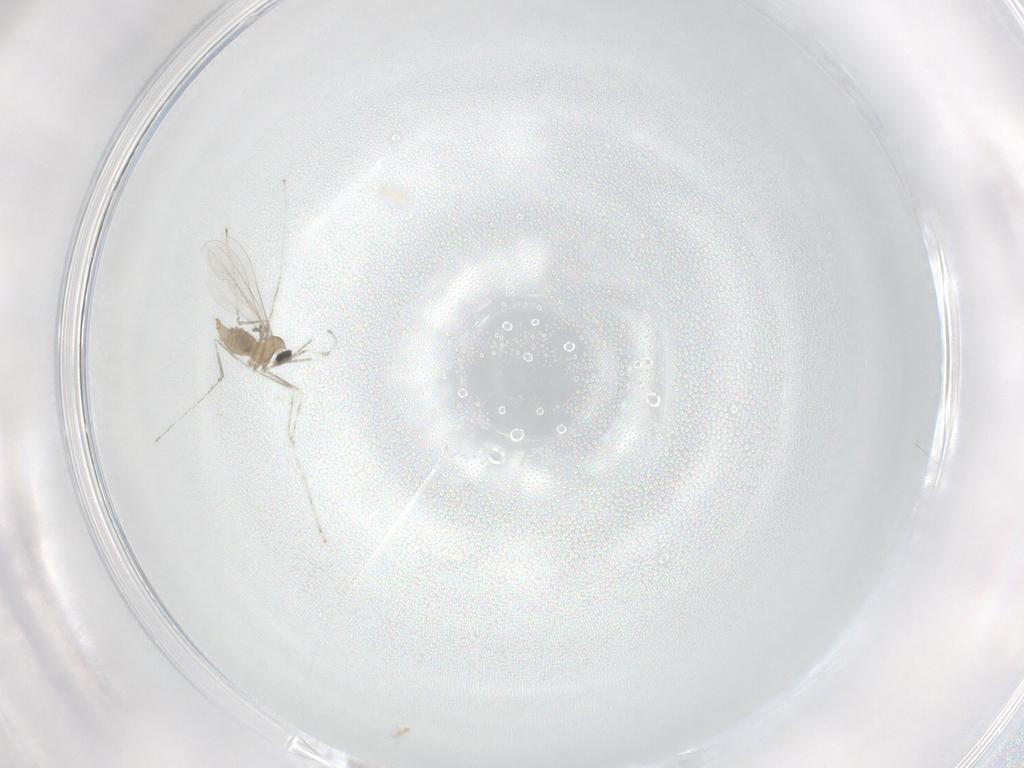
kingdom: Animalia
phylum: Arthropoda
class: Insecta
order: Diptera
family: Cecidomyiidae
